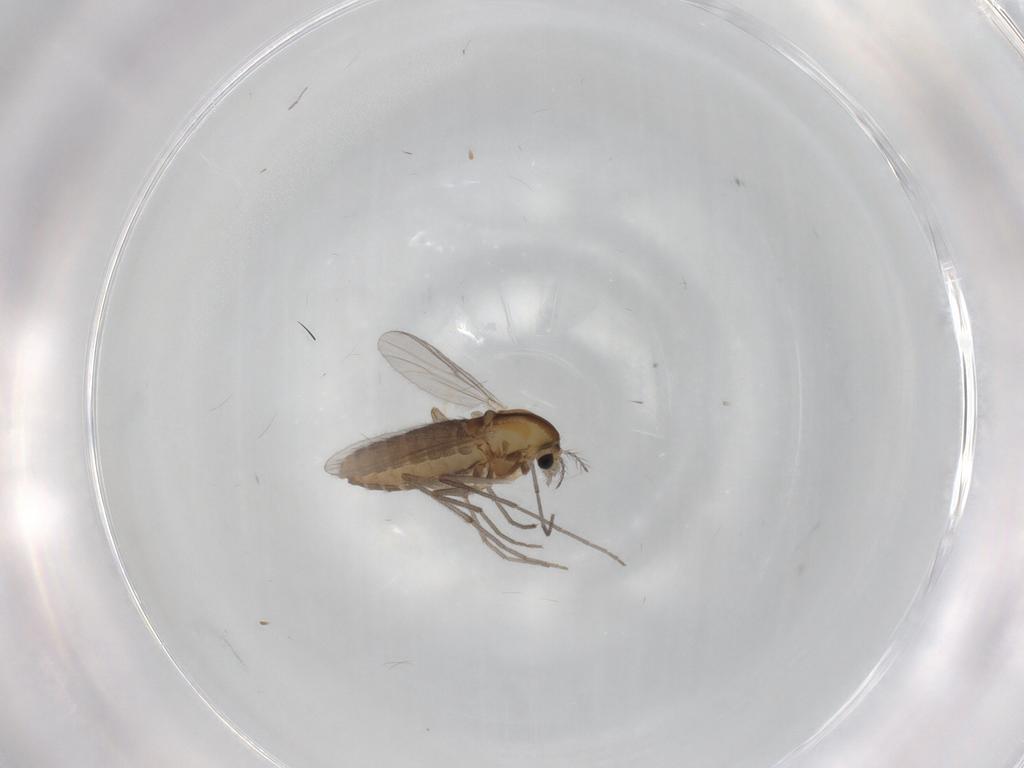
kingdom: Animalia
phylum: Arthropoda
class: Insecta
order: Diptera
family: Chironomidae
